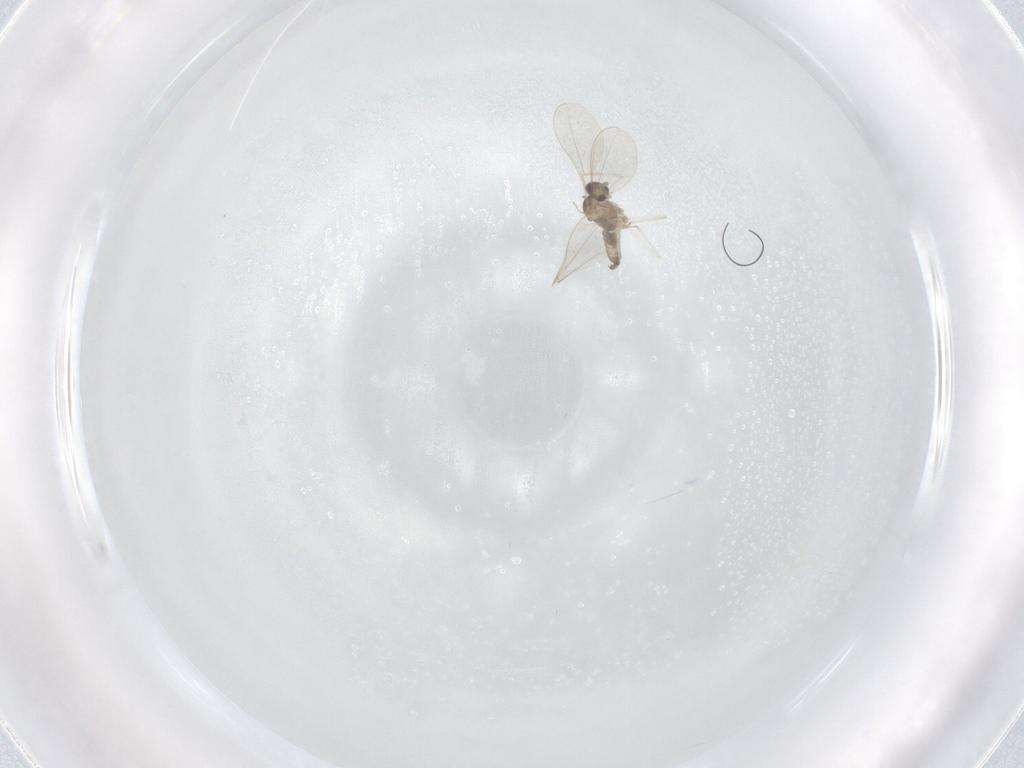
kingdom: Animalia
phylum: Arthropoda
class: Insecta
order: Diptera
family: Cecidomyiidae
